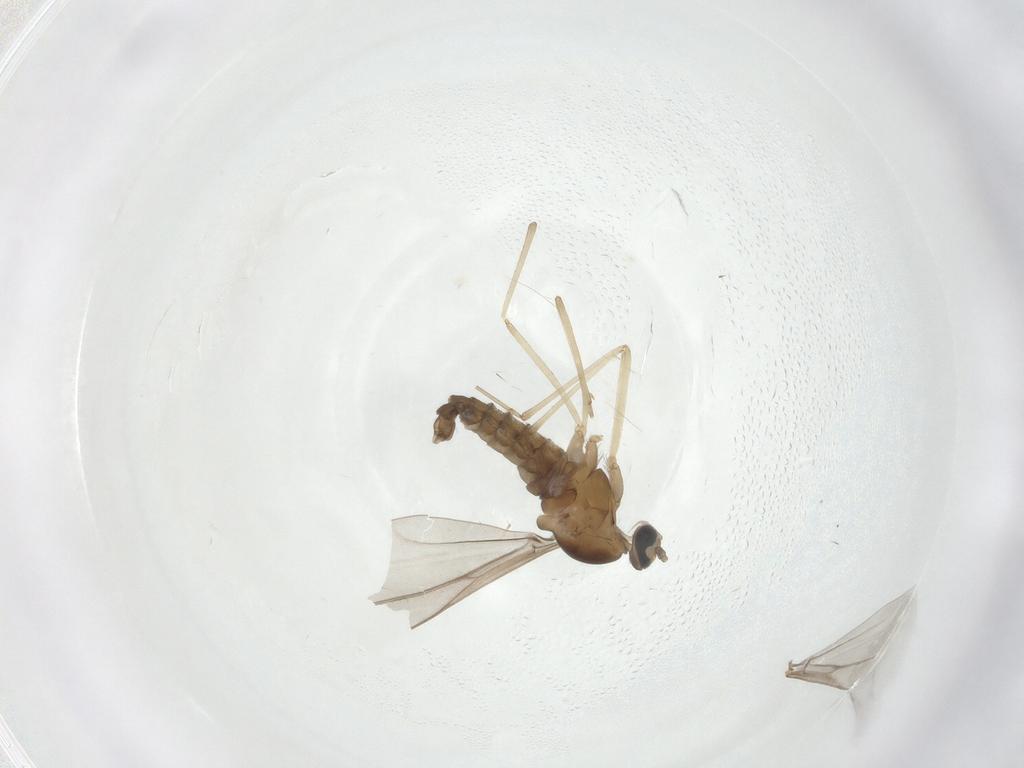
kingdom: Animalia
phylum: Arthropoda
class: Insecta
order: Diptera
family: Cecidomyiidae
